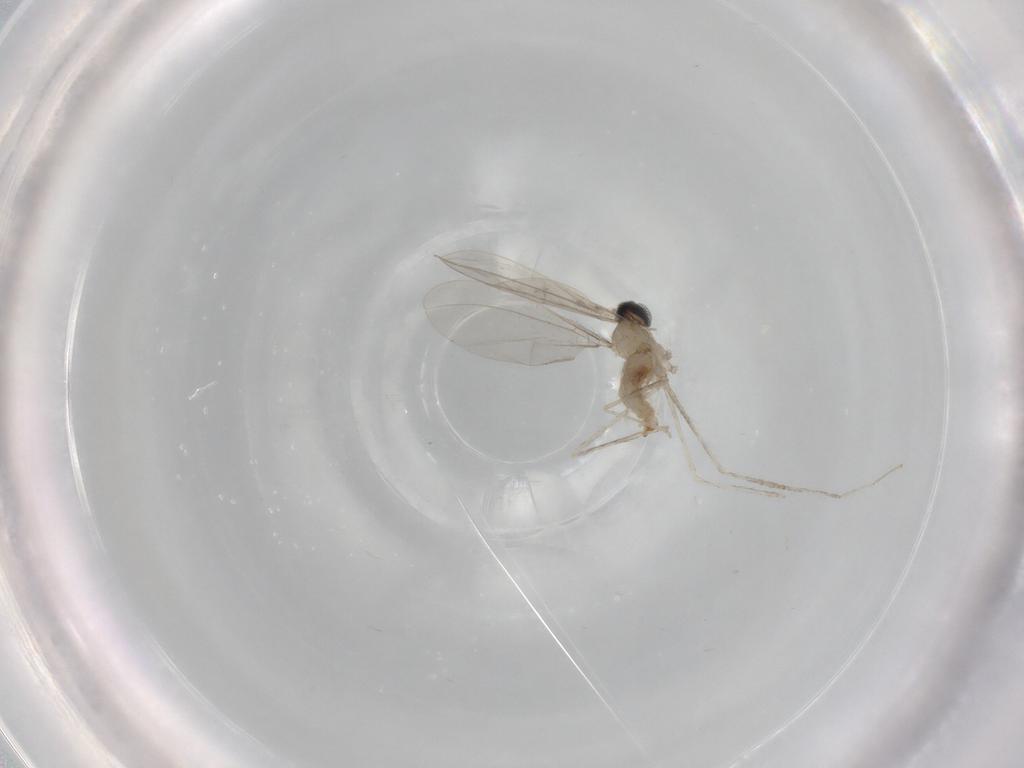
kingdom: Animalia
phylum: Arthropoda
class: Insecta
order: Diptera
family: Cecidomyiidae
